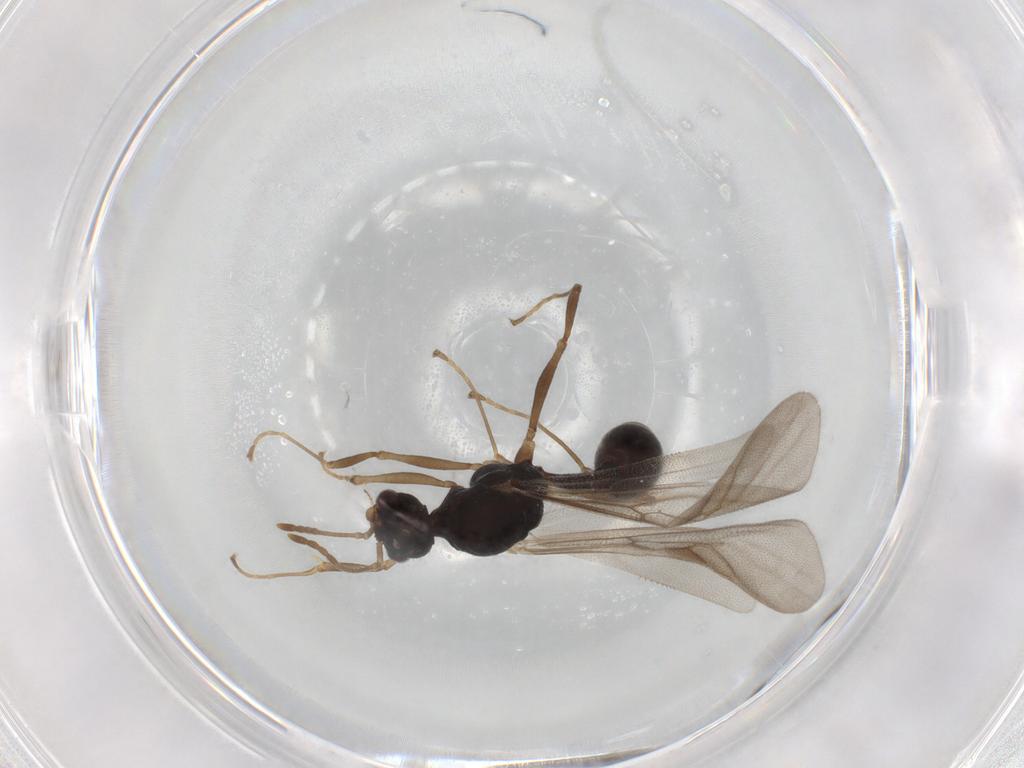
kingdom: Animalia
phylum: Arthropoda
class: Insecta
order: Hymenoptera
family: Formicidae
